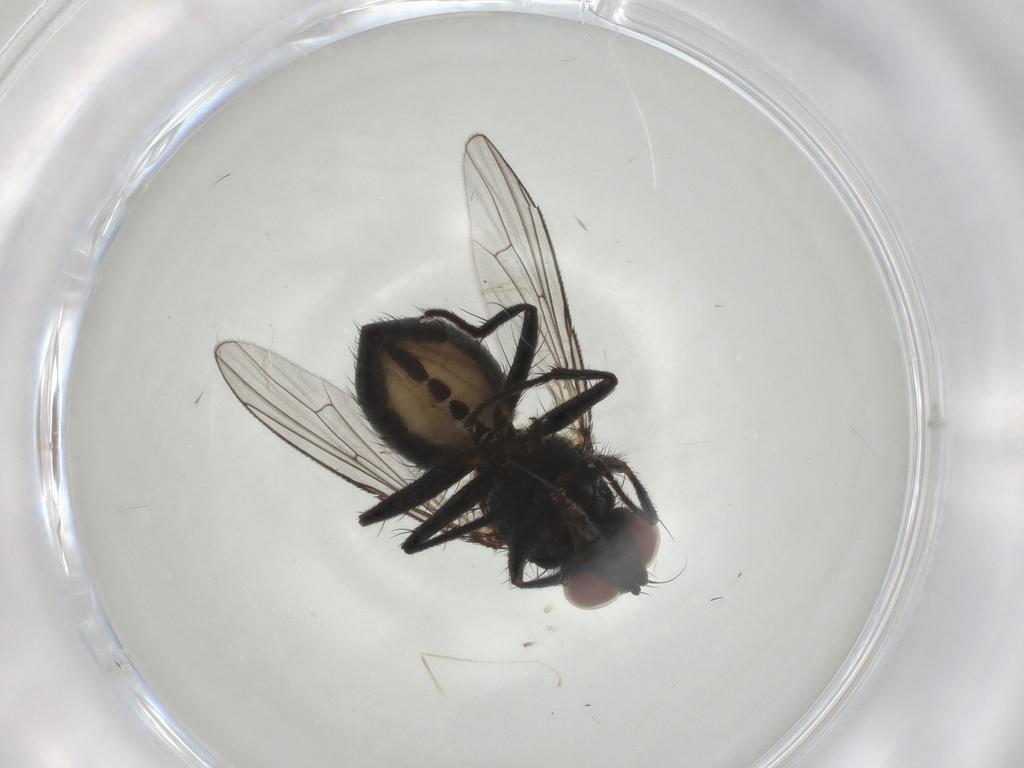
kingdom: Animalia
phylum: Arthropoda
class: Insecta
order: Diptera
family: Muscidae
